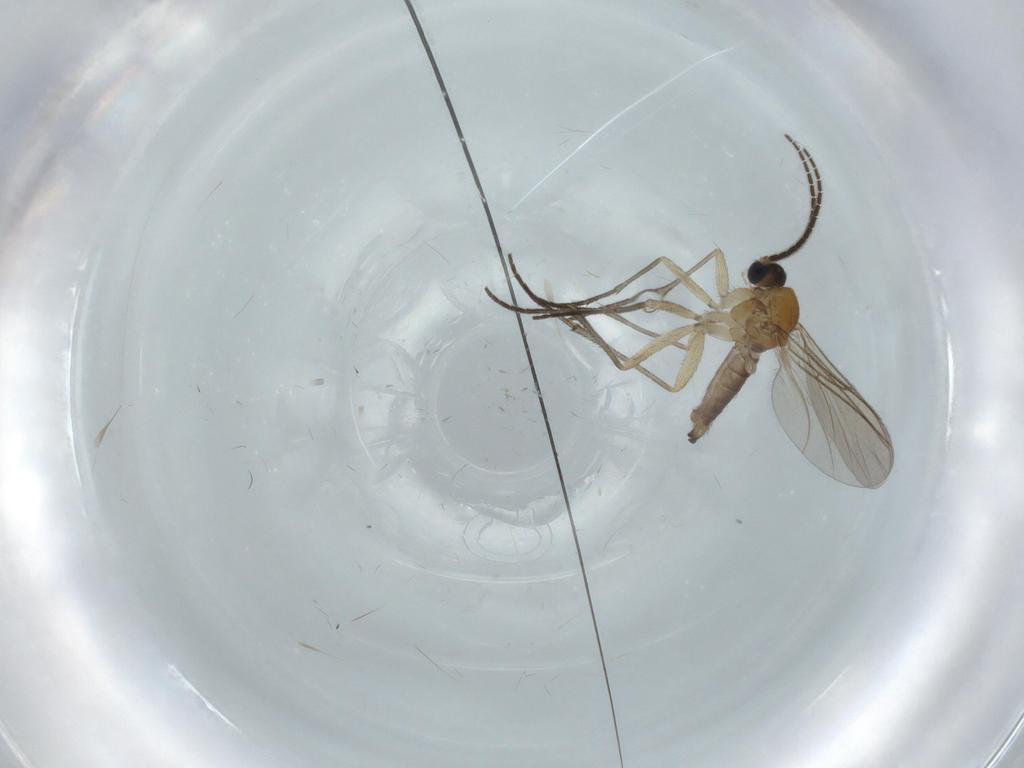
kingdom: Animalia
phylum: Arthropoda
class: Insecta
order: Diptera
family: Sciaridae
